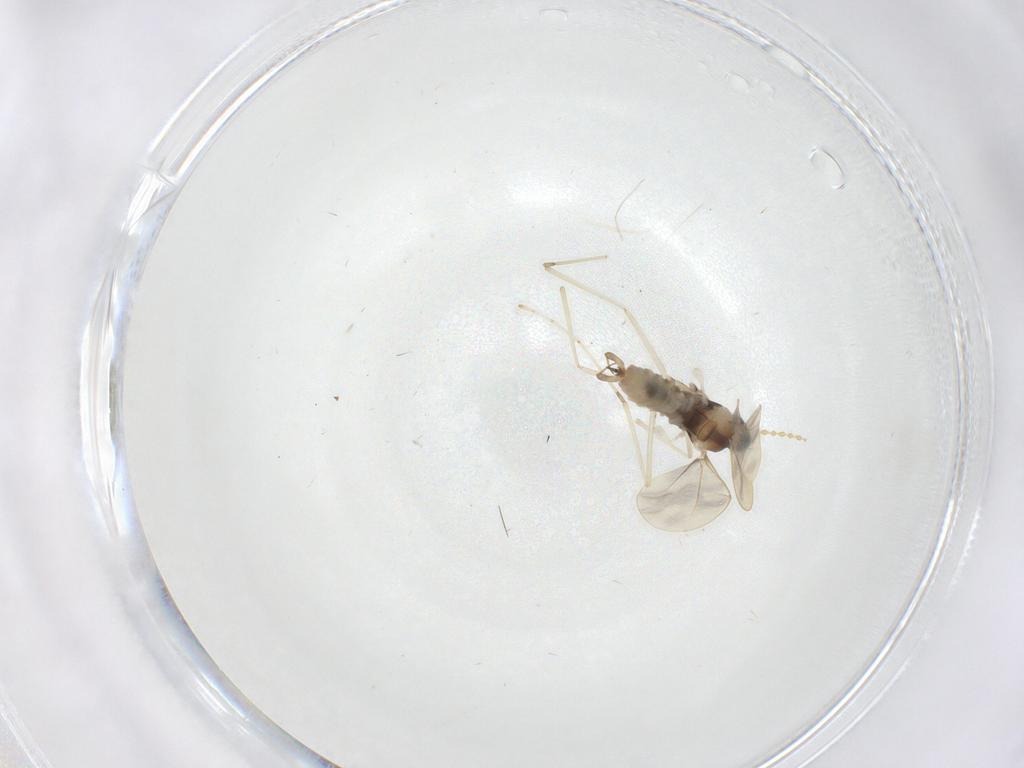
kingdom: Animalia
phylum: Arthropoda
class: Insecta
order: Diptera
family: Cecidomyiidae
